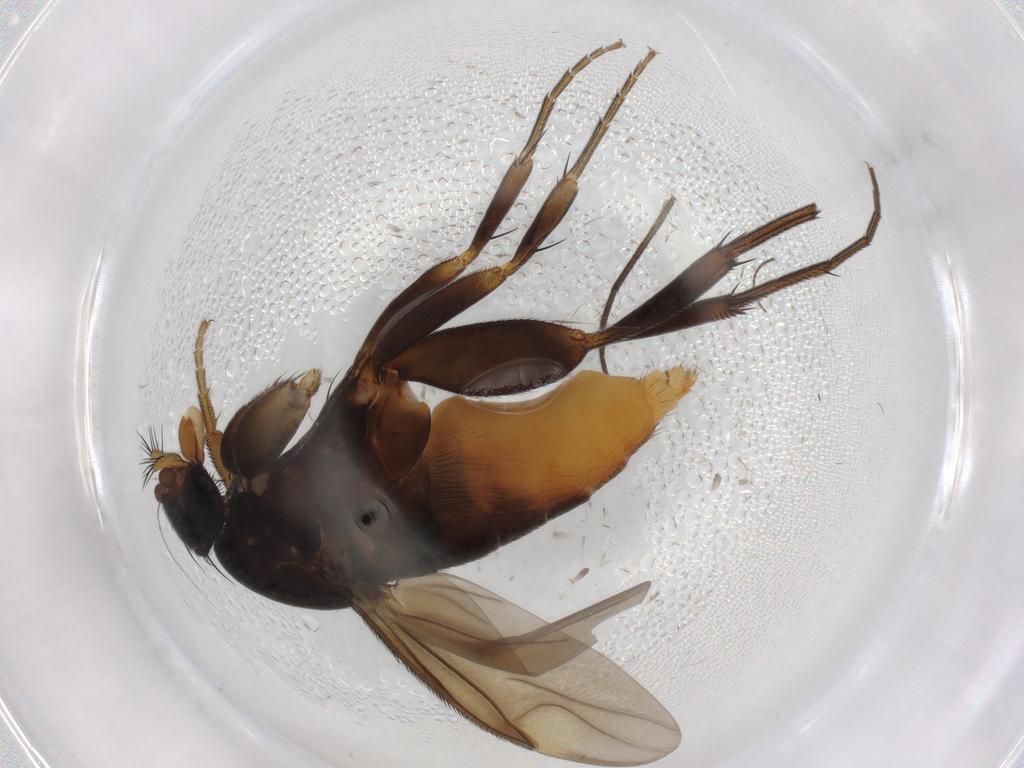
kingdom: Animalia
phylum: Arthropoda
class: Insecta
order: Diptera
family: Phoridae
